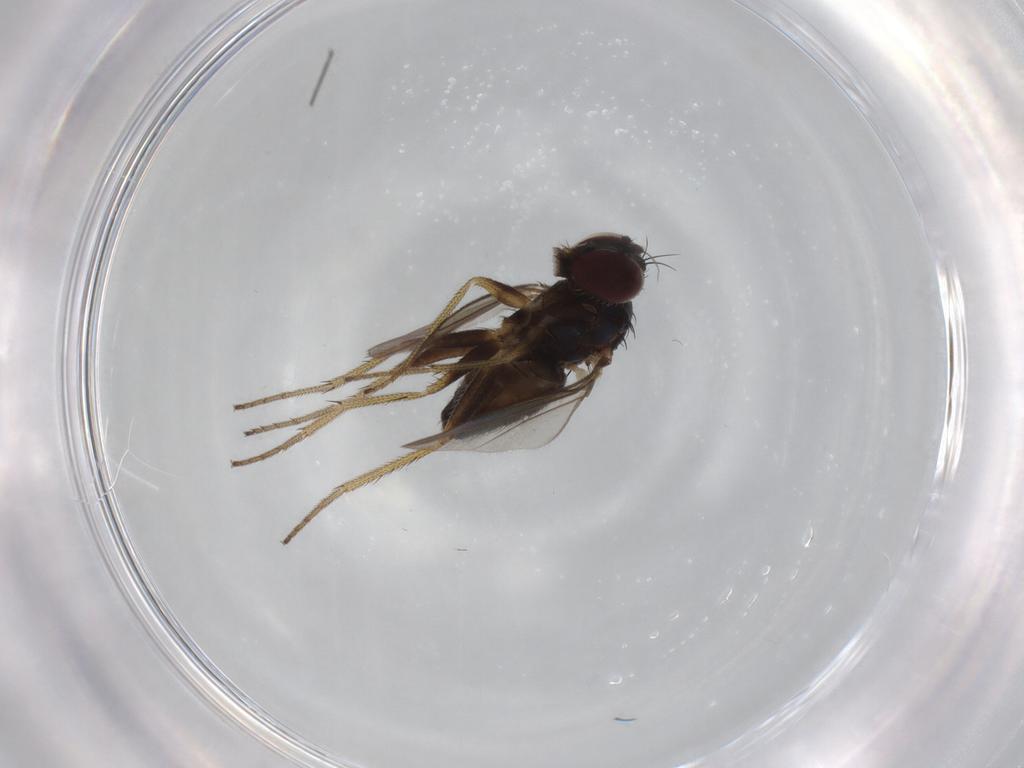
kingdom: Animalia
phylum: Arthropoda
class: Insecta
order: Diptera
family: Dolichopodidae
